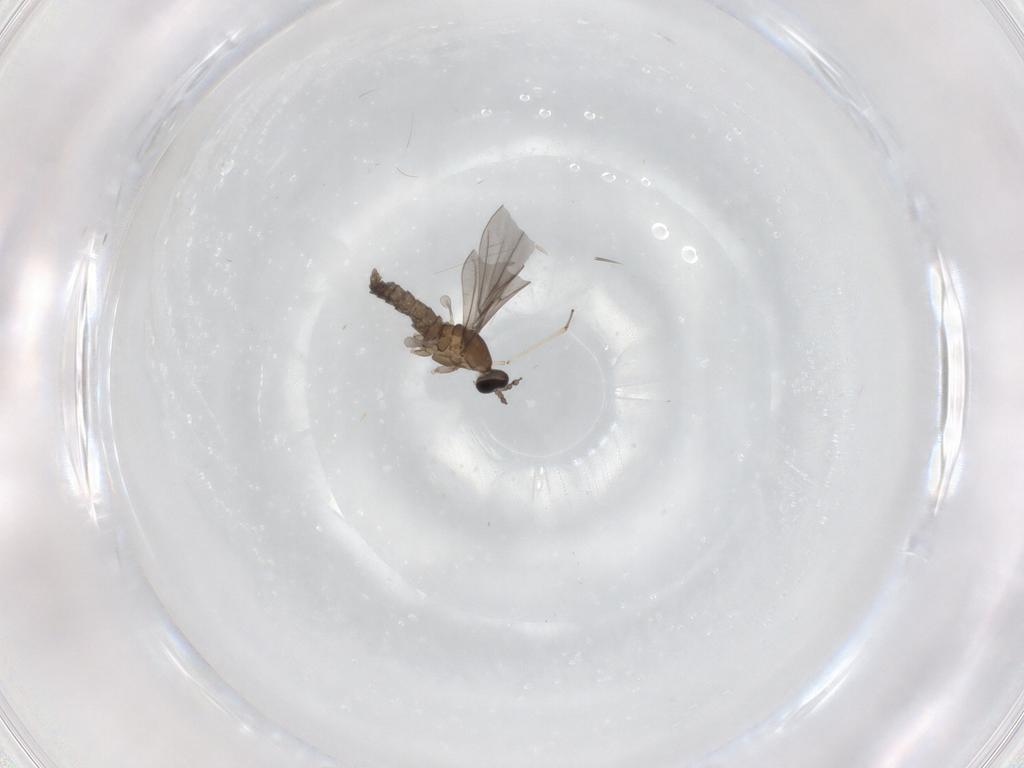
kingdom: Animalia
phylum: Arthropoda
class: Insecta
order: Diptera
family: Cecidomyiidae
